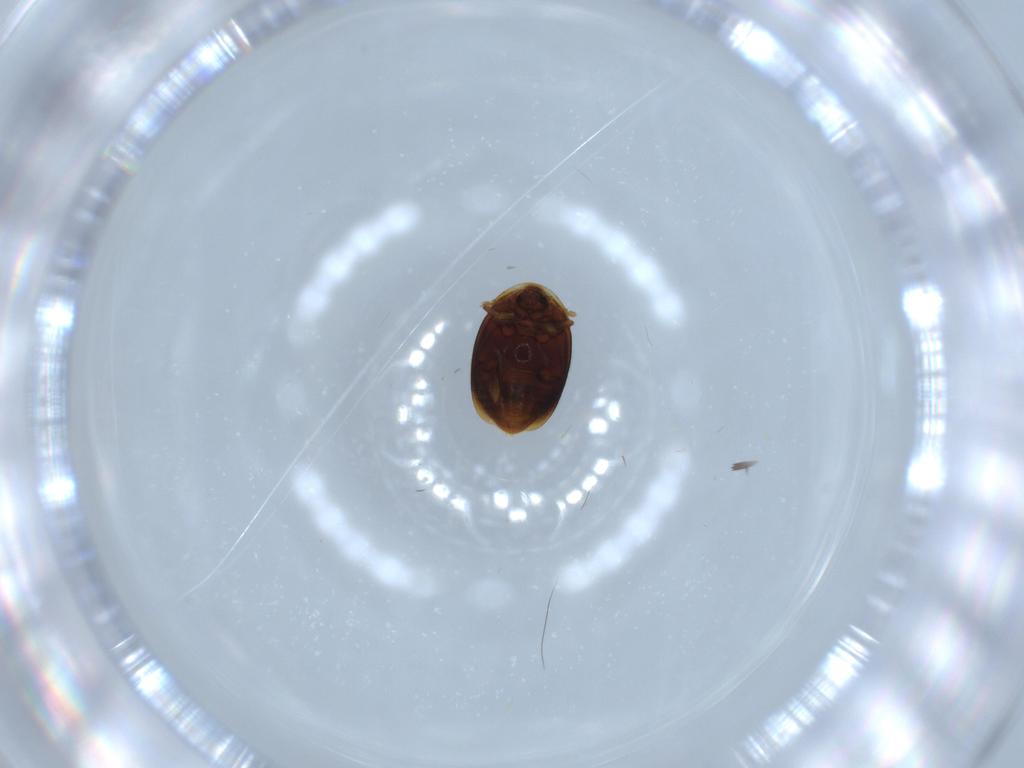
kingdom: Animalia
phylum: Arthropoda
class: Insecta
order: Coleoptera
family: Corylophidae
